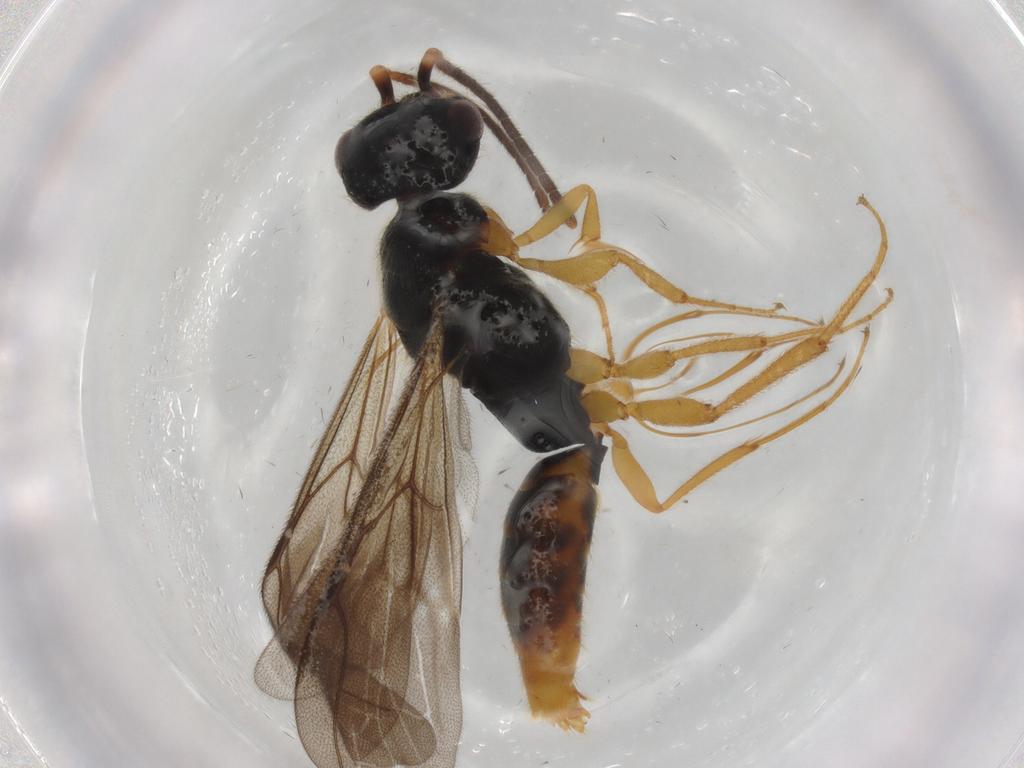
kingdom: Animalia
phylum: Arthropoda
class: Insecta
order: Hymenoptera
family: Bethylidae
